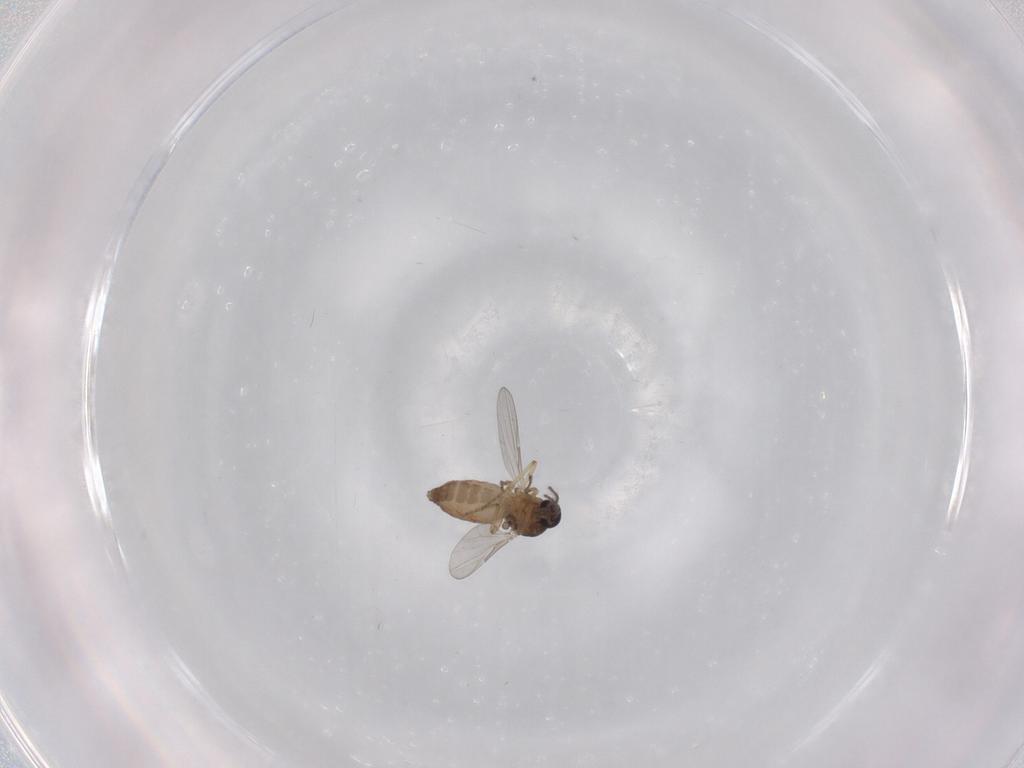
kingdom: Animalia
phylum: Arthropoda
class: Insecta
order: Diptera
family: Ceratopogonidae
